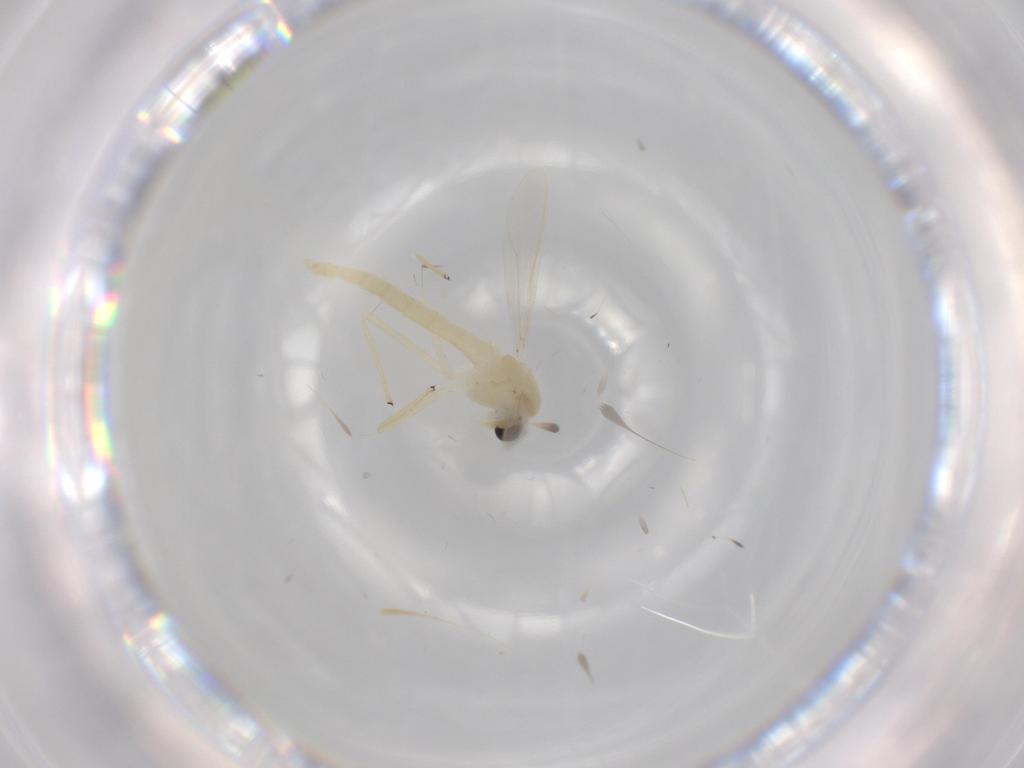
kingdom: Animalia
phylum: Arthropoda
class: Insecta
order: Diptera
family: Chironomidae
